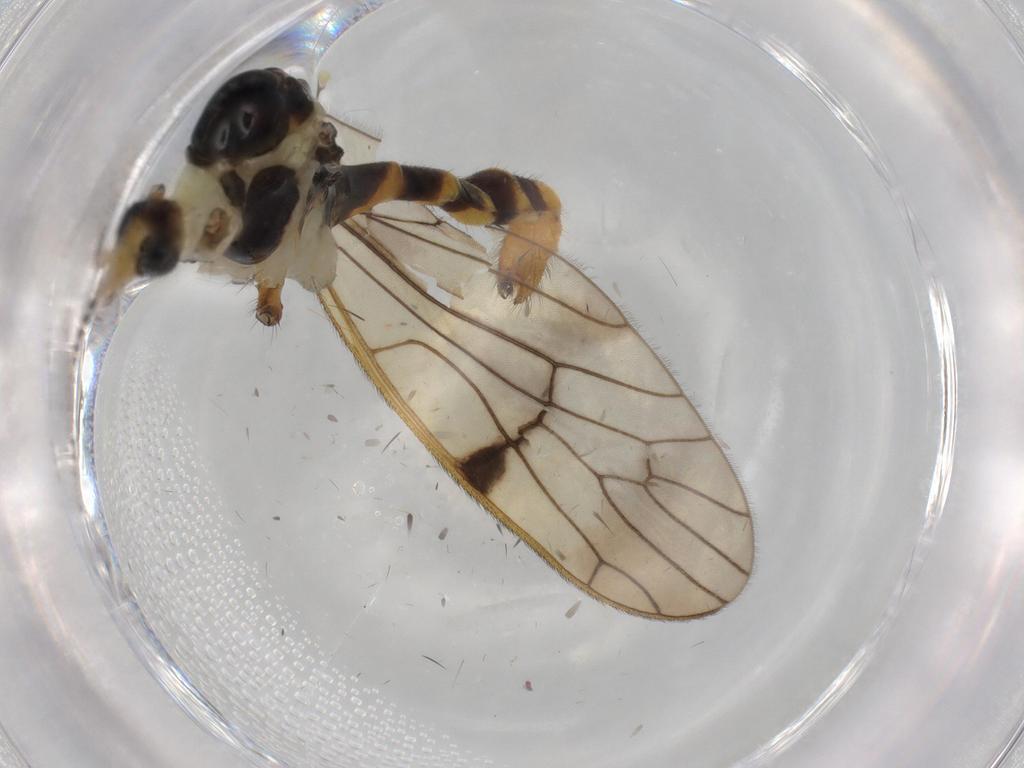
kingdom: Animalia
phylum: Arthropoda
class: Insecta
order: Diptera
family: Limoniidae
